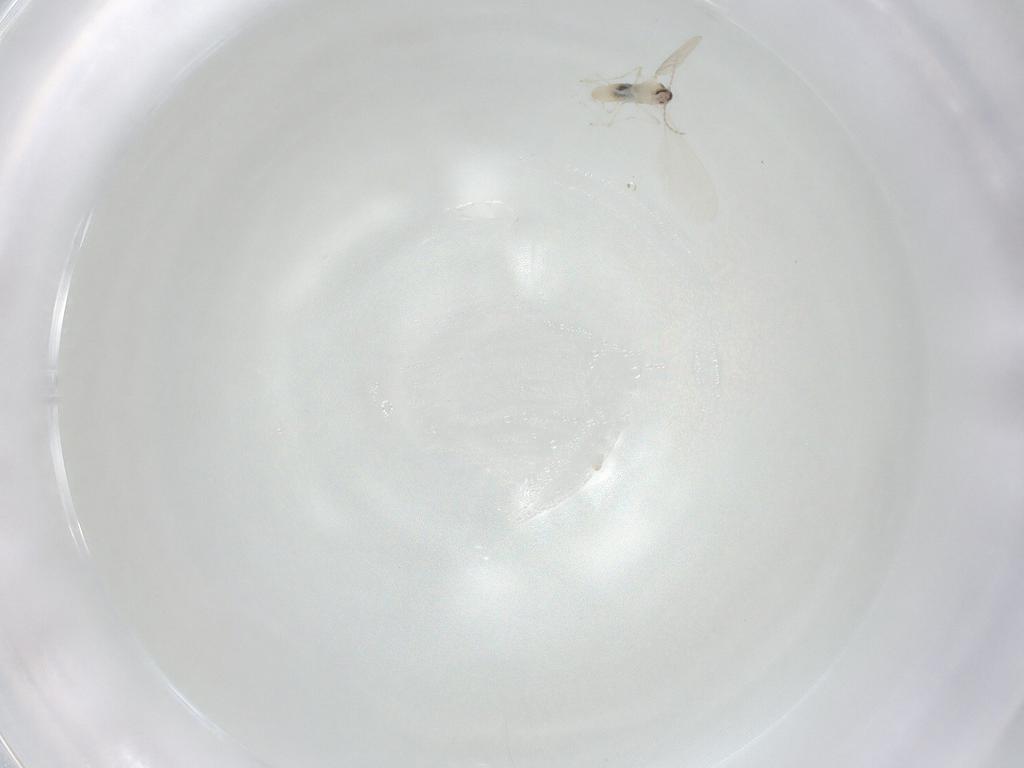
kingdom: Animalia
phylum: Arthropoda
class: Insecta
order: Diptera
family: Cecidomyiidae
